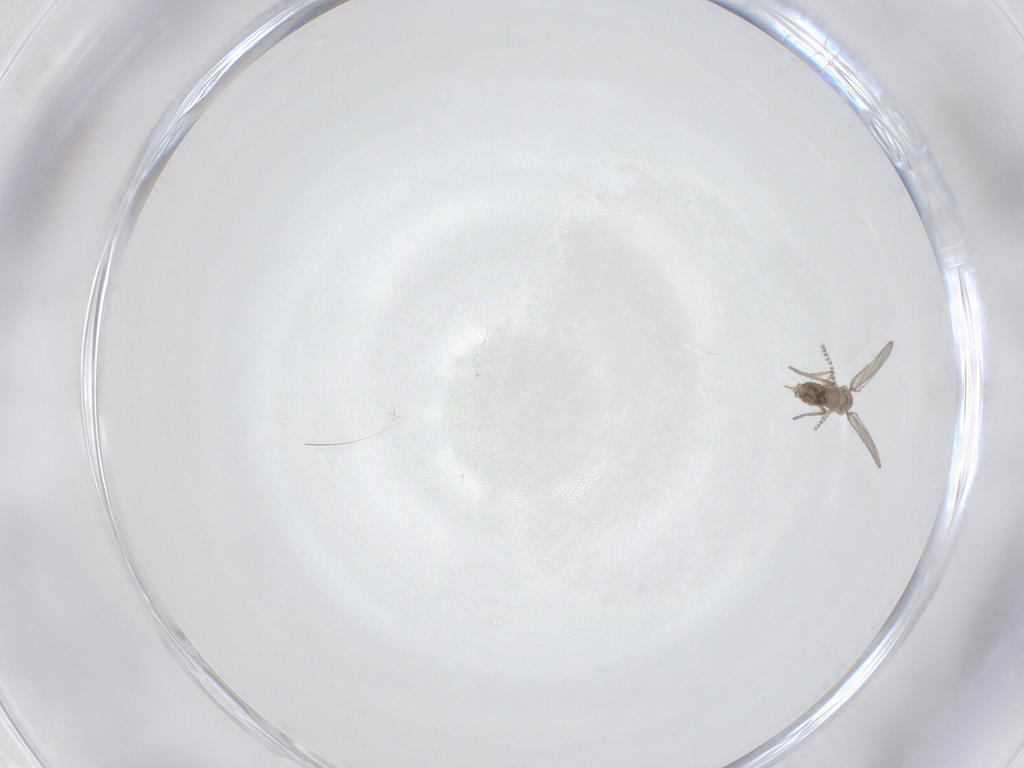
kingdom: Animalia
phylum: Arthropoda
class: Insecta
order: Diptera
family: Psychodidae
